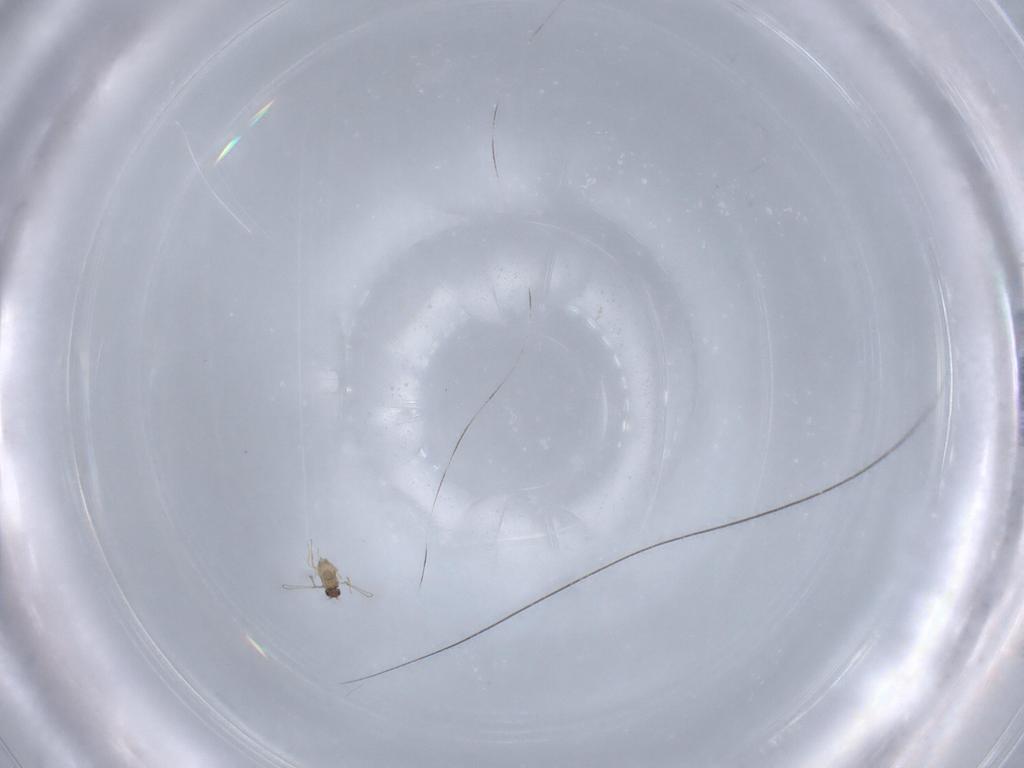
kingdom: Animalia
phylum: Arthropoda
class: Insecta
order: Hymenoptera
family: Mymaridae
